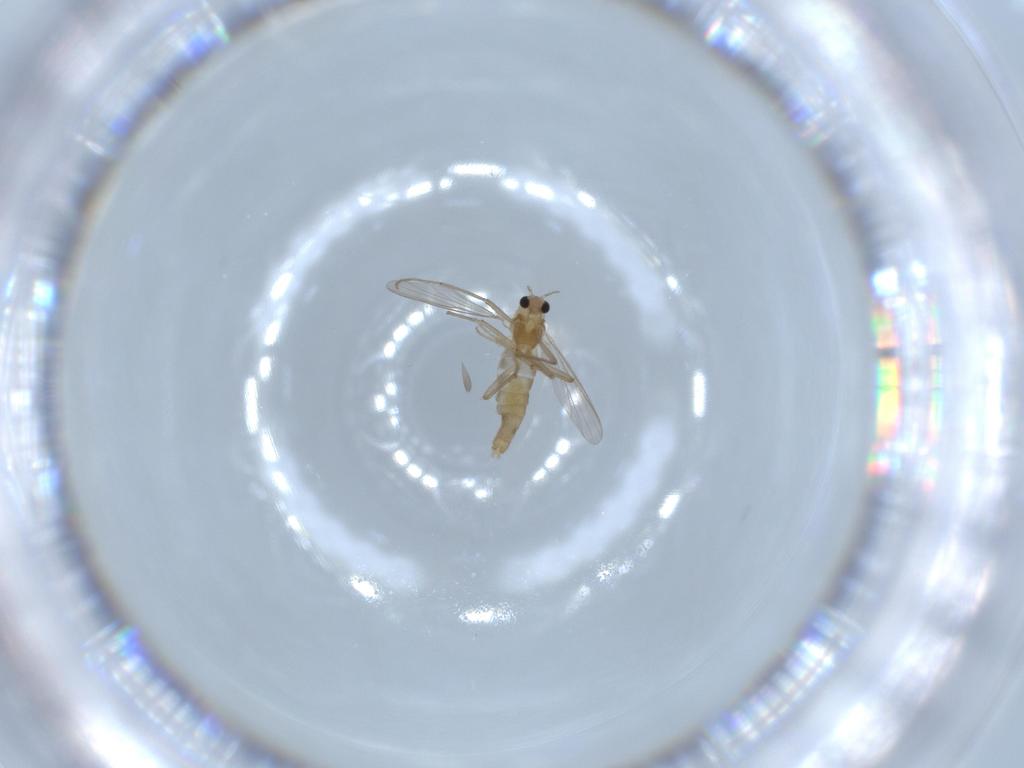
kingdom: Animalia
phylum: Arthropoda
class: Insecta
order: Diptera
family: Chironomidae
